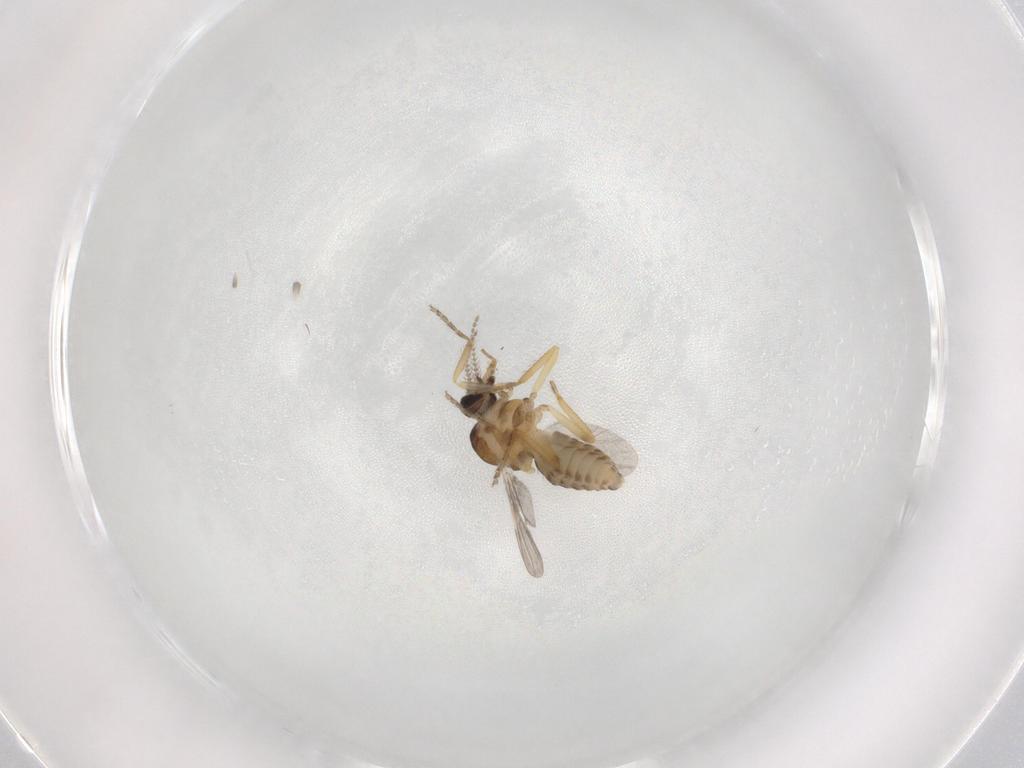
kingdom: Animalia
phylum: Arthropoda
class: Insecta
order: Diptera
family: Ceratopogonidae
